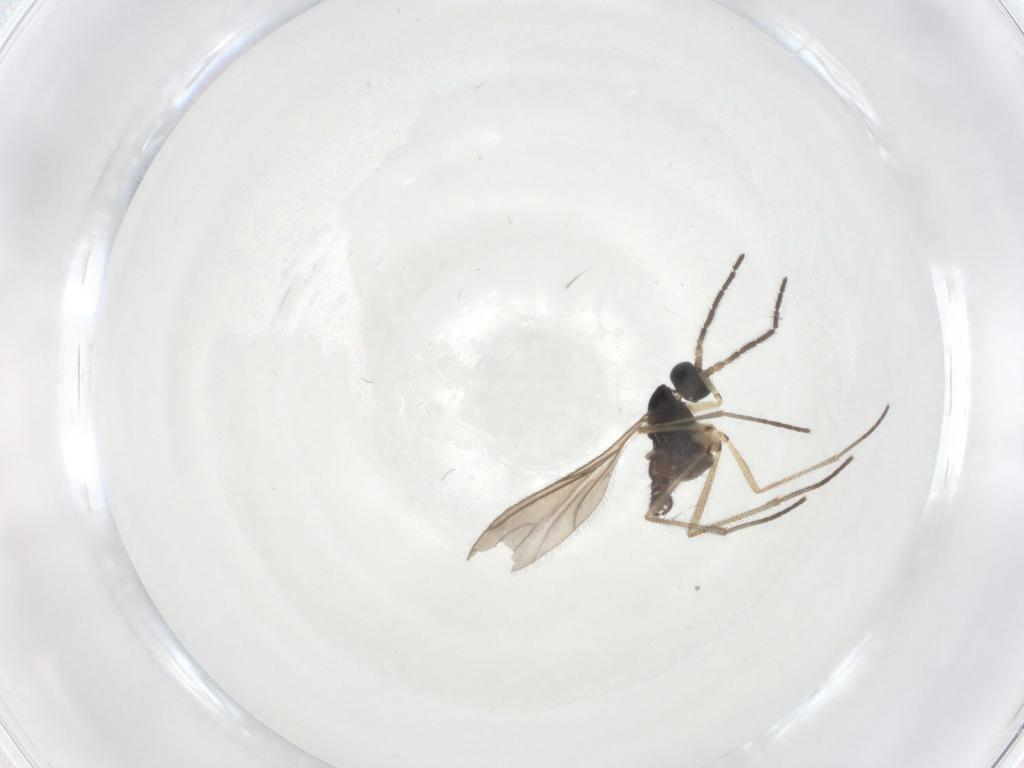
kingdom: Animalia
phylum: Arthropoda
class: Insecta
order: Diptera
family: Sciaridae
